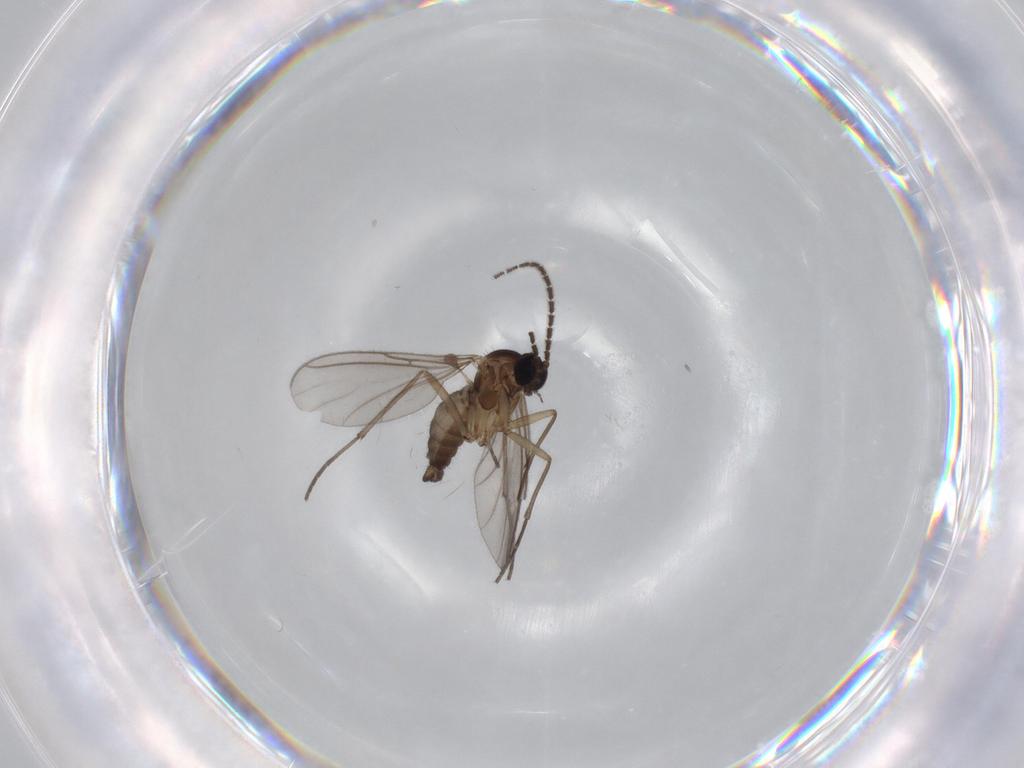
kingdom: Animalia
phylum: Arthropoda
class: Insecta
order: Diptera
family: Sciaridae
